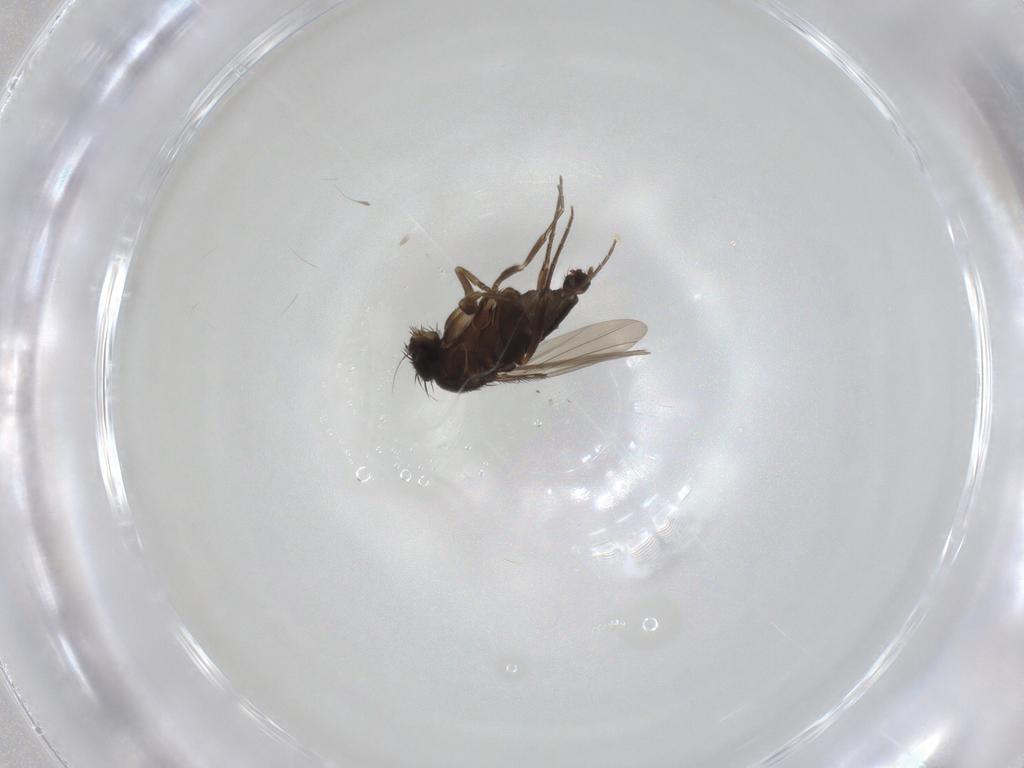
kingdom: Animalia
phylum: Arthropoda
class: Insecta
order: Diptera
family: Phoridae
